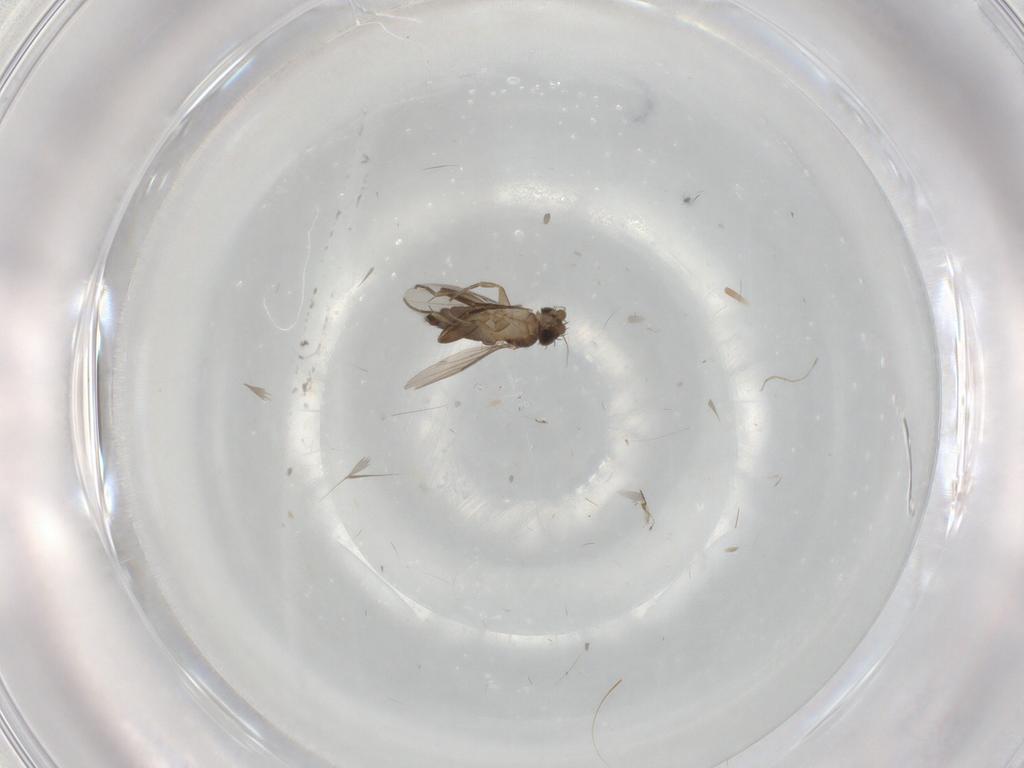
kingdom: Animalia
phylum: Arthropoda
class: Insecta
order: Diptera
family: Phoridae
